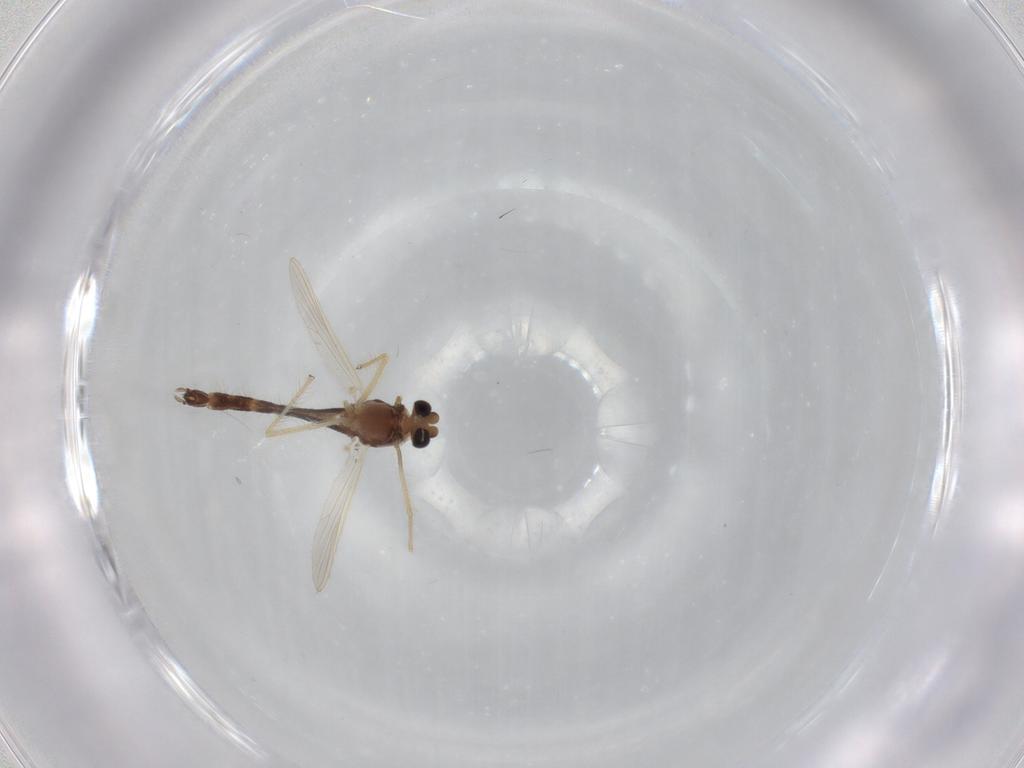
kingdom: Animalia
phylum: Arthropoda
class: Insecta
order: Diptera
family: Chironomidae
